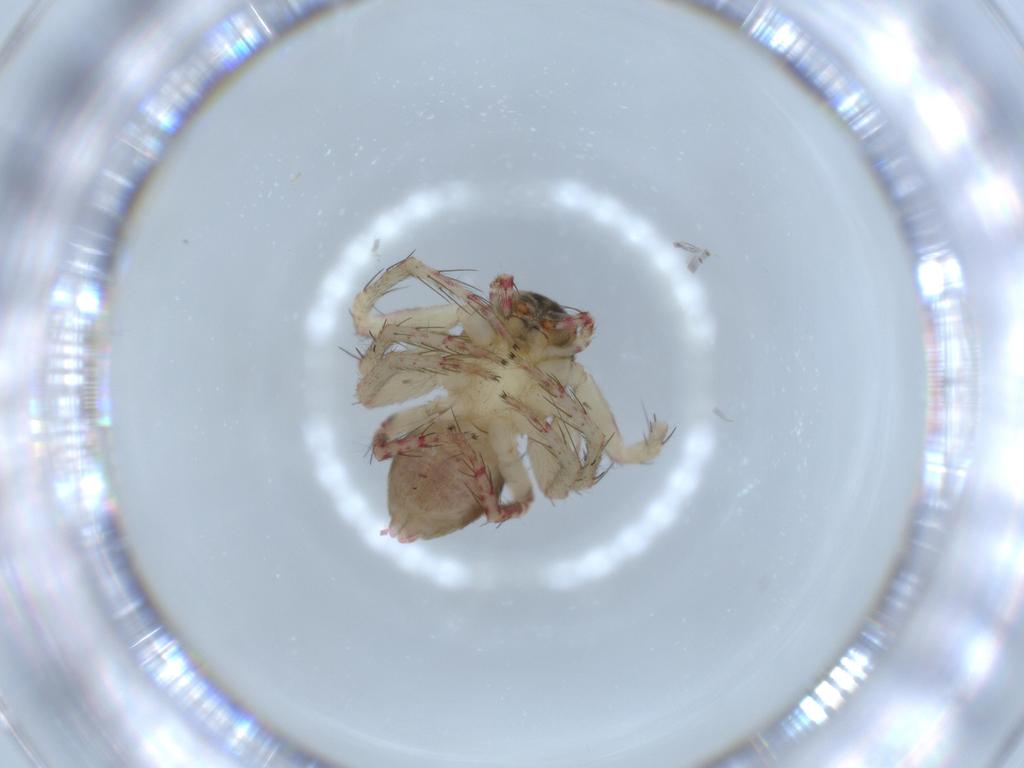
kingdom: Animalia
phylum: Arthropoda
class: Arachnida
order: Araneae
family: Oxyopidae
